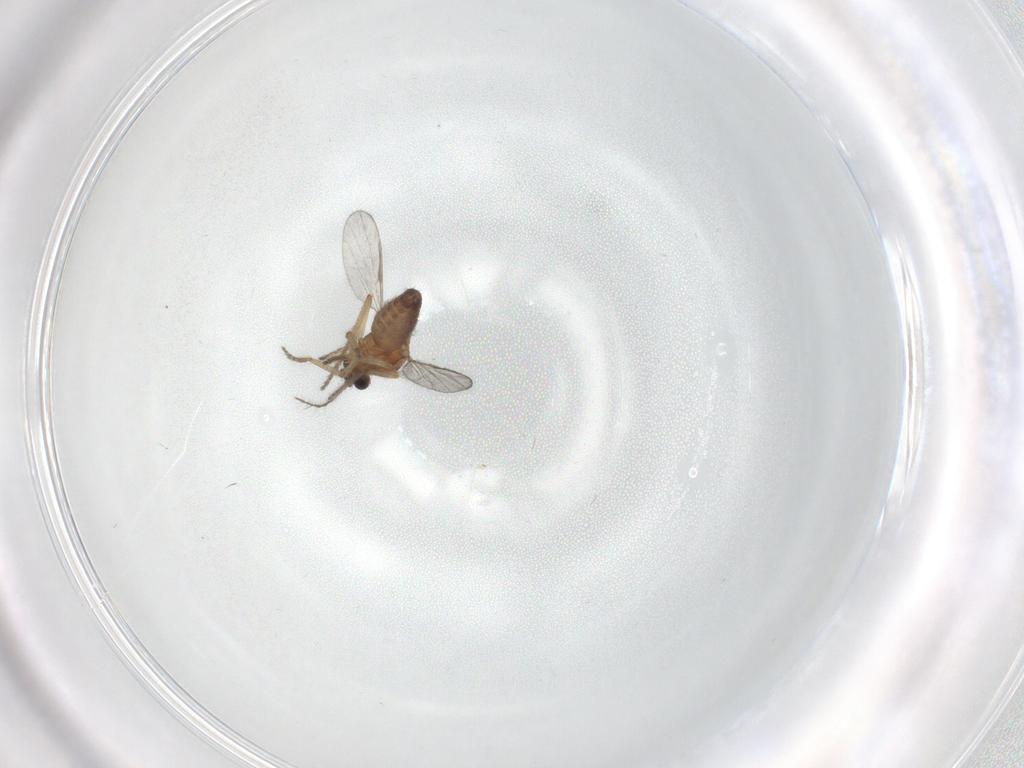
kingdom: Animalia
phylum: Arthropoda
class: Insecta
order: Diptera
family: Ceratopogonidae
